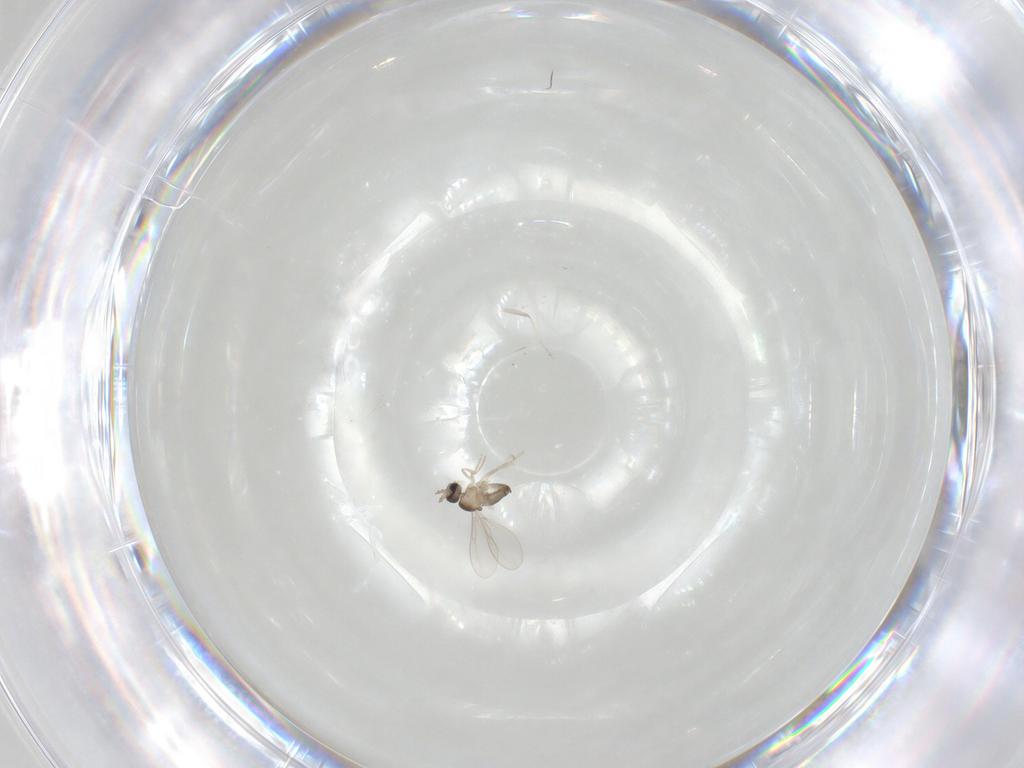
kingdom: Animalia
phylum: Arthropoda
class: Insecta
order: Diptera
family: Cecidomyiidae
